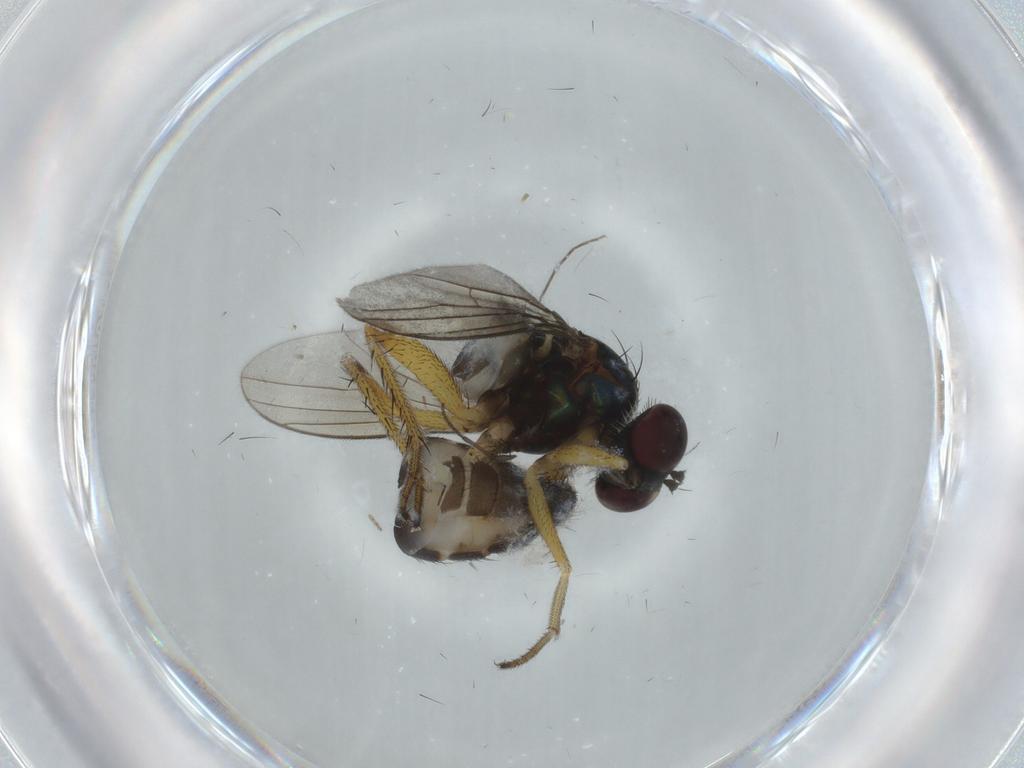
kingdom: Animalia
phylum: Arthropoda
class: Insecta
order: Diptera
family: Dolichopodidae
